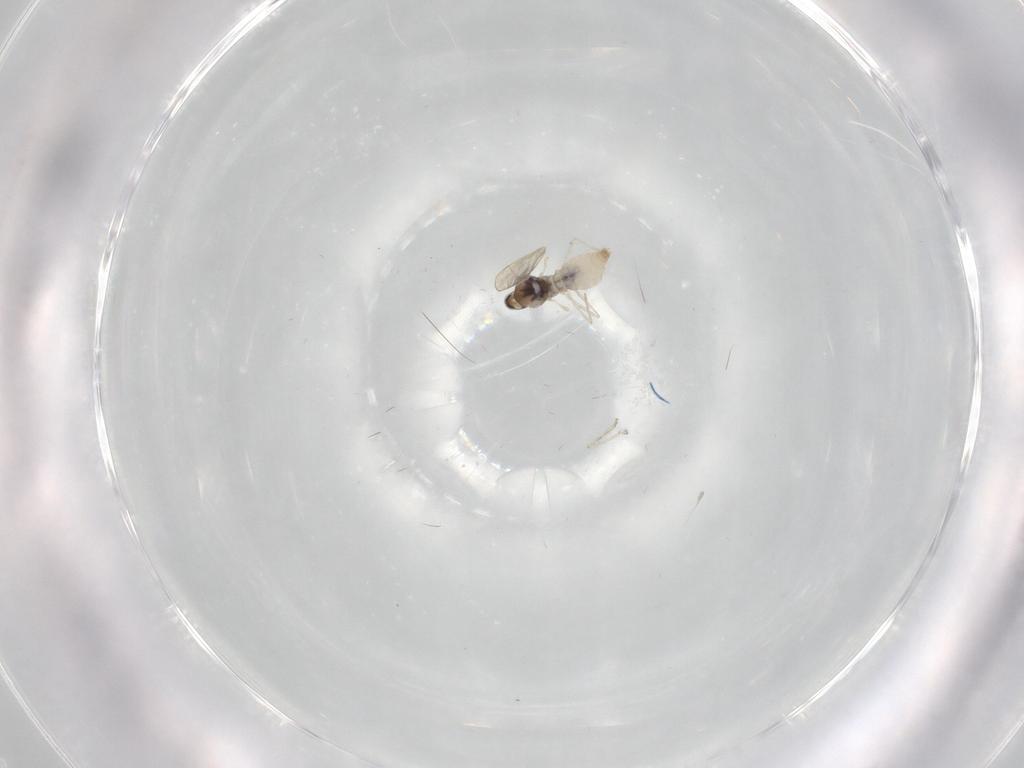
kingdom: Animalia
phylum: Arthropoda
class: Insecta
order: Diptera
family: Cecidomyiidae
